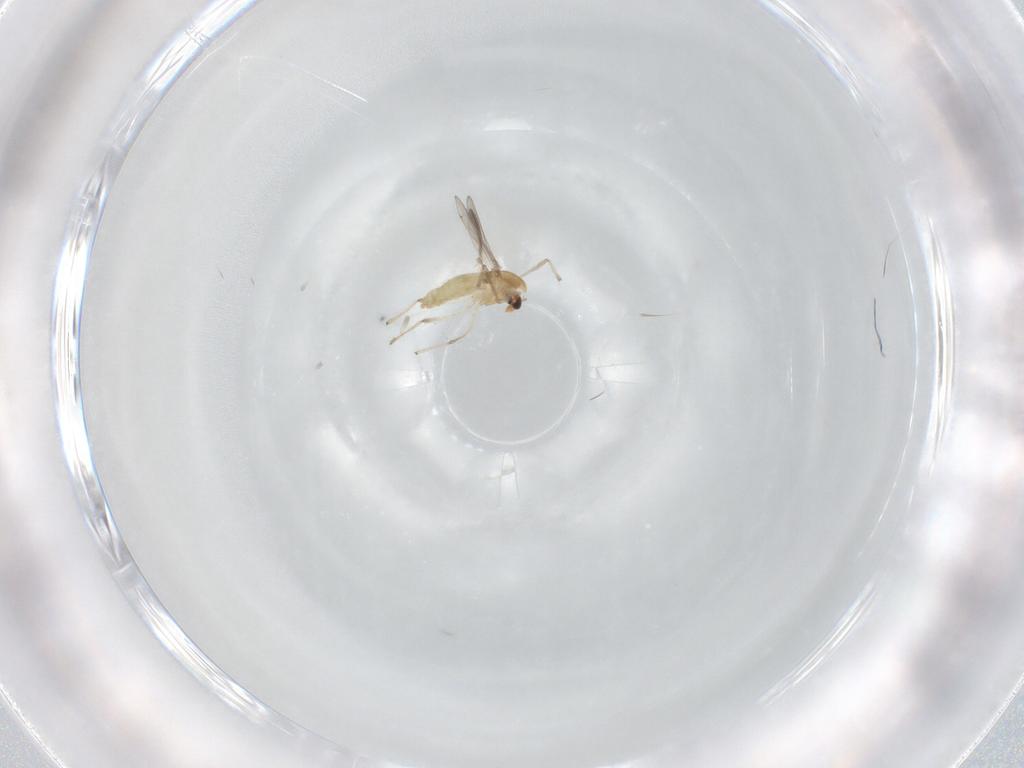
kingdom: Animalia
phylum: Arthropoda
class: Insecta
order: Diptera
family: Chironomidae
